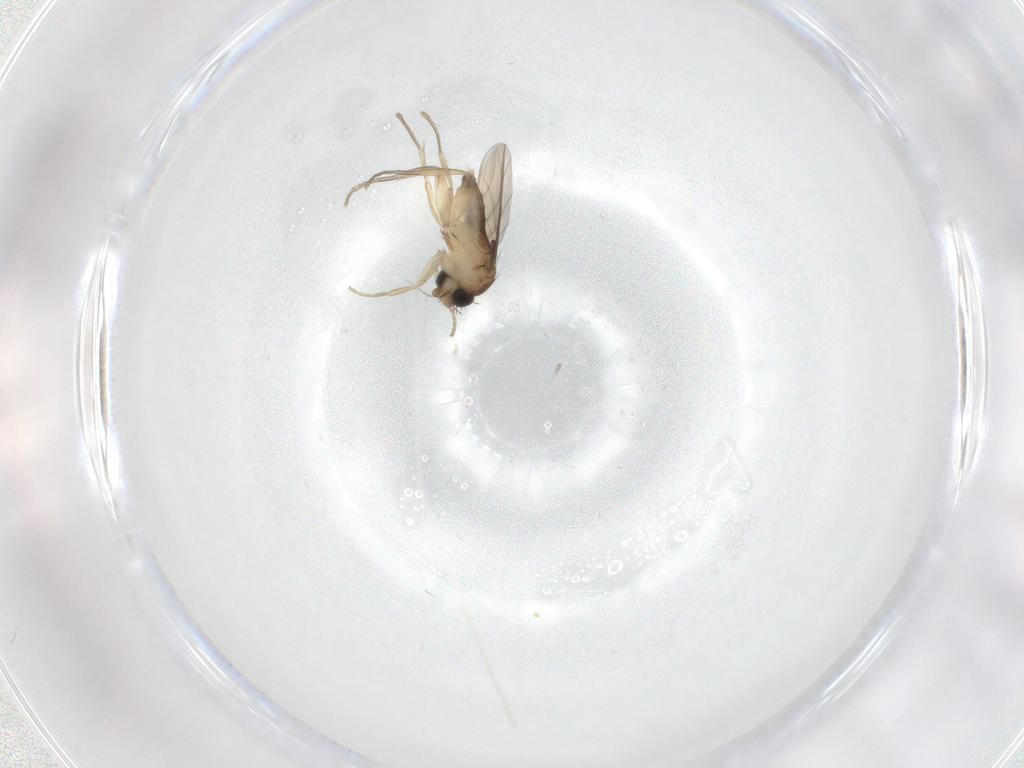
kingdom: Animalia
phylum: Arthropoda
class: Insecta
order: Diptera
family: Phoridae
